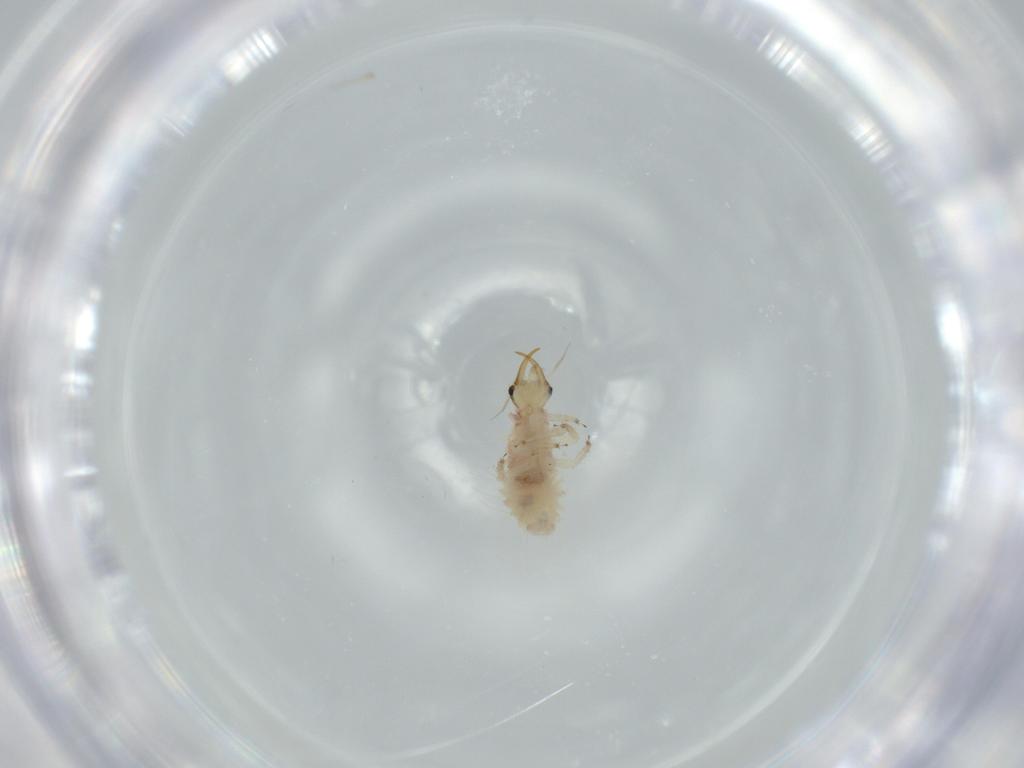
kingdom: Animalia
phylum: Arthropoda
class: Insecta
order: Neuroptera
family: Chrysopidae
